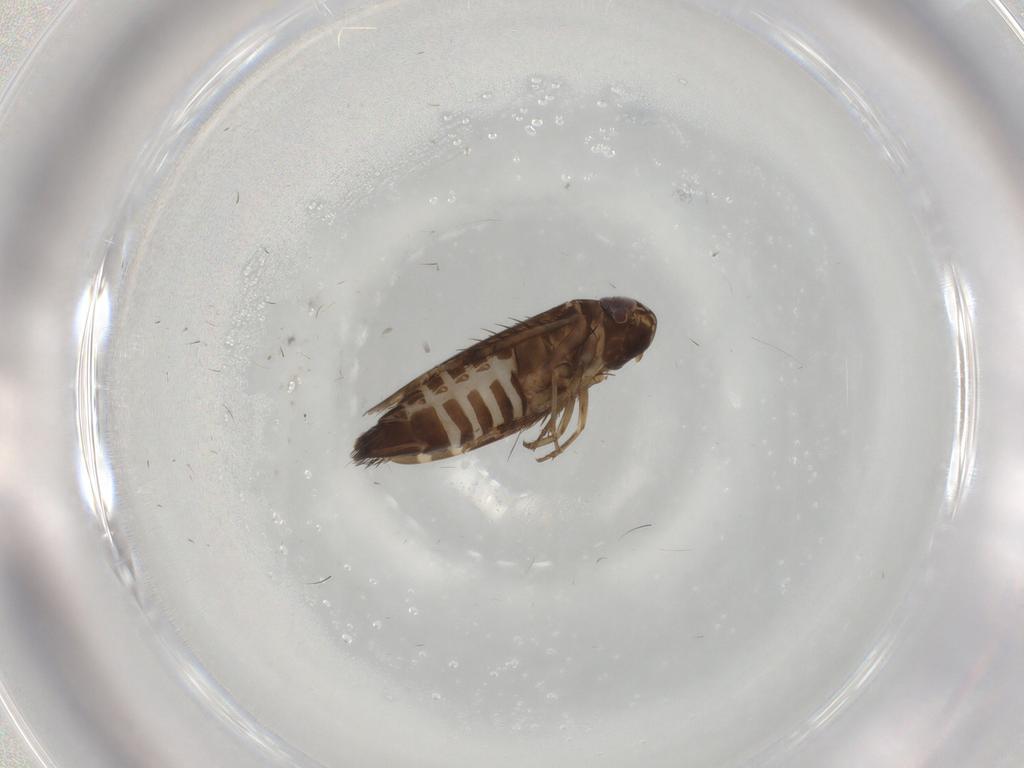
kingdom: Animalia
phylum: Arthropoda
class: Insecta
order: Hemiptera
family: Cicadellidae
